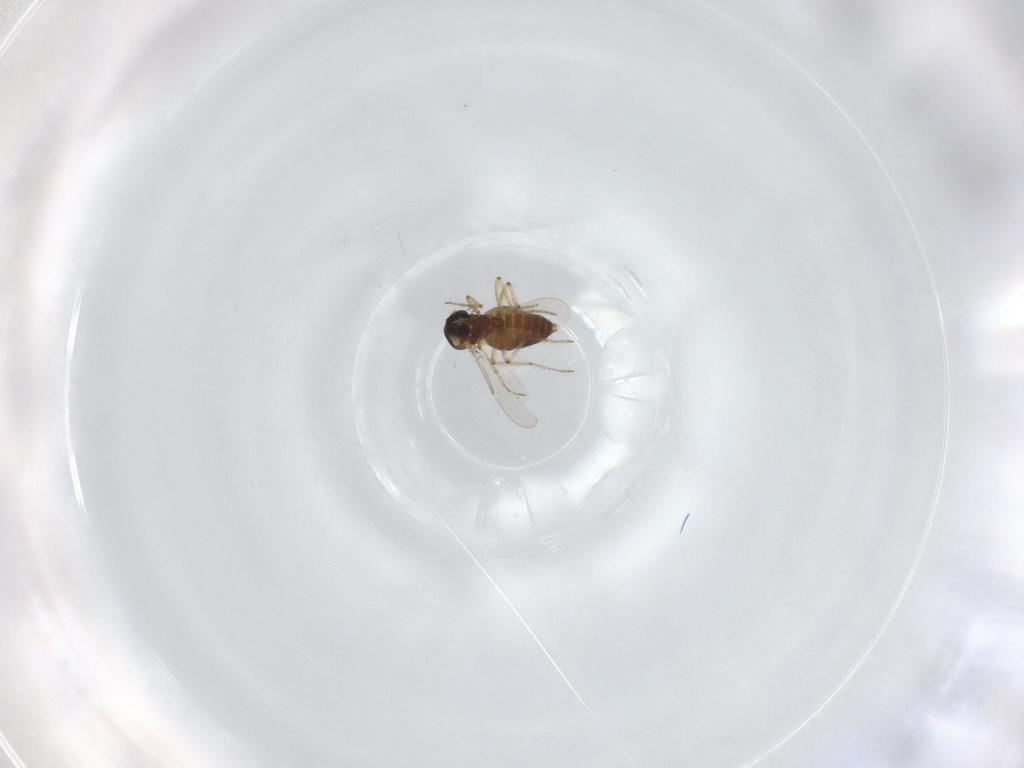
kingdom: Animalia
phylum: Arthropoda
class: Insecta
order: Diptera
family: Ceratopogonidae
